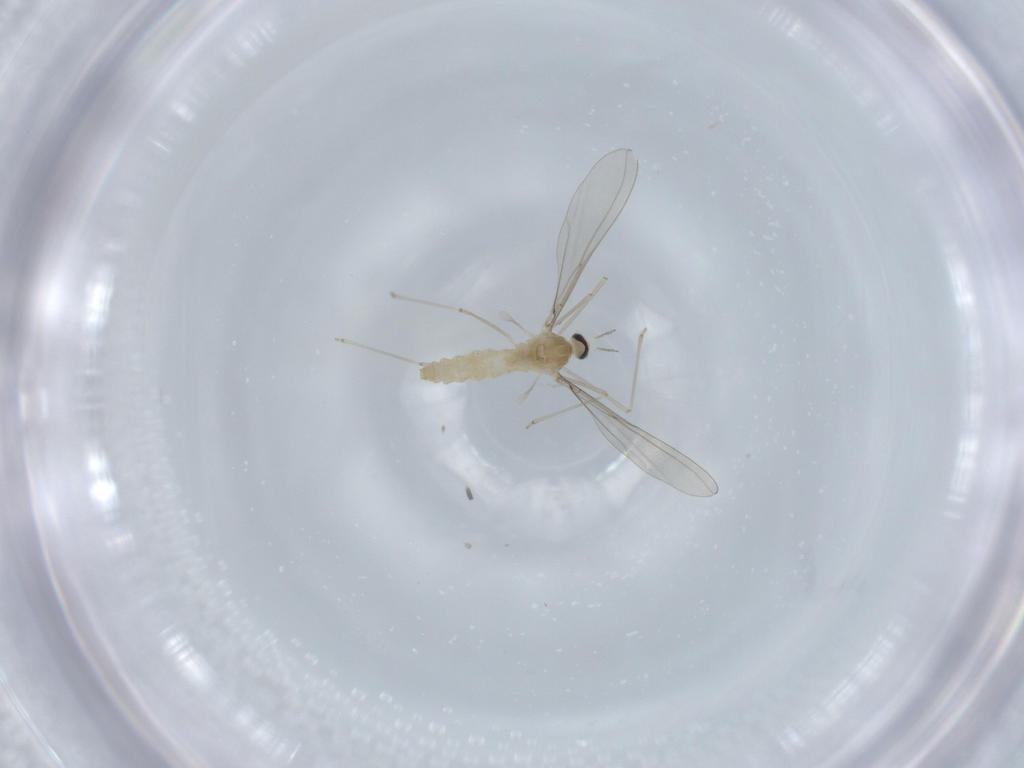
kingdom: Animalia
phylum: Arthropoda
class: Insecta
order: Diptera
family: Cecidomyiidae
